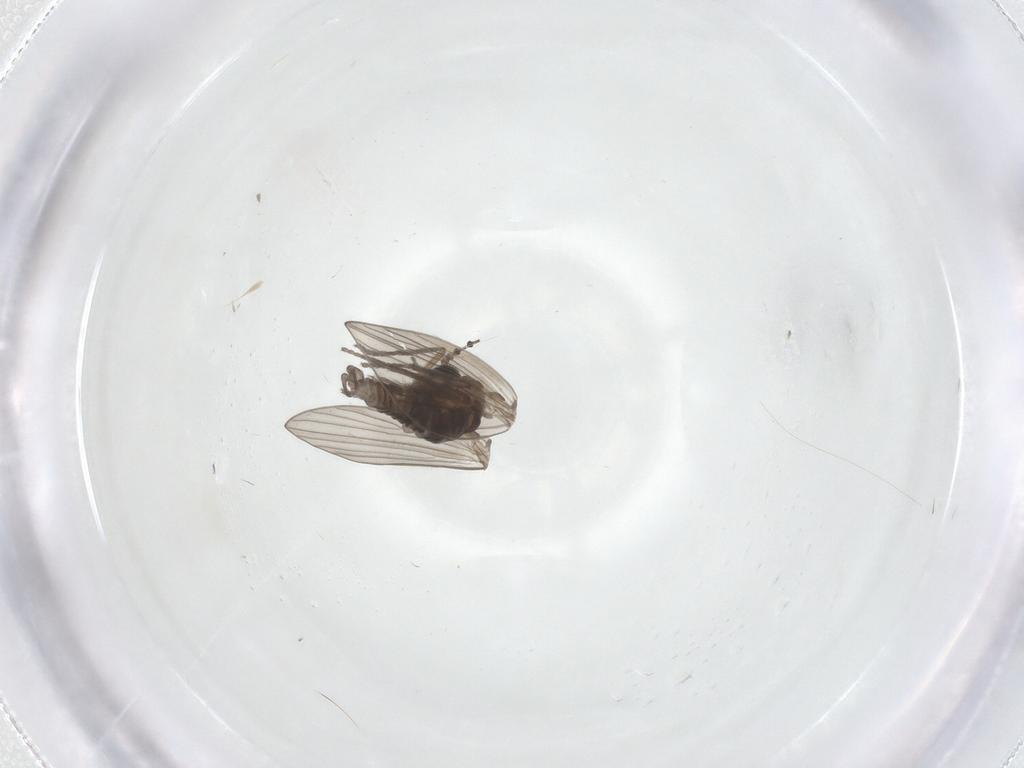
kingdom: Animalia
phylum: Arthropoda
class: Insecta
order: Diptera
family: Psychodidae
